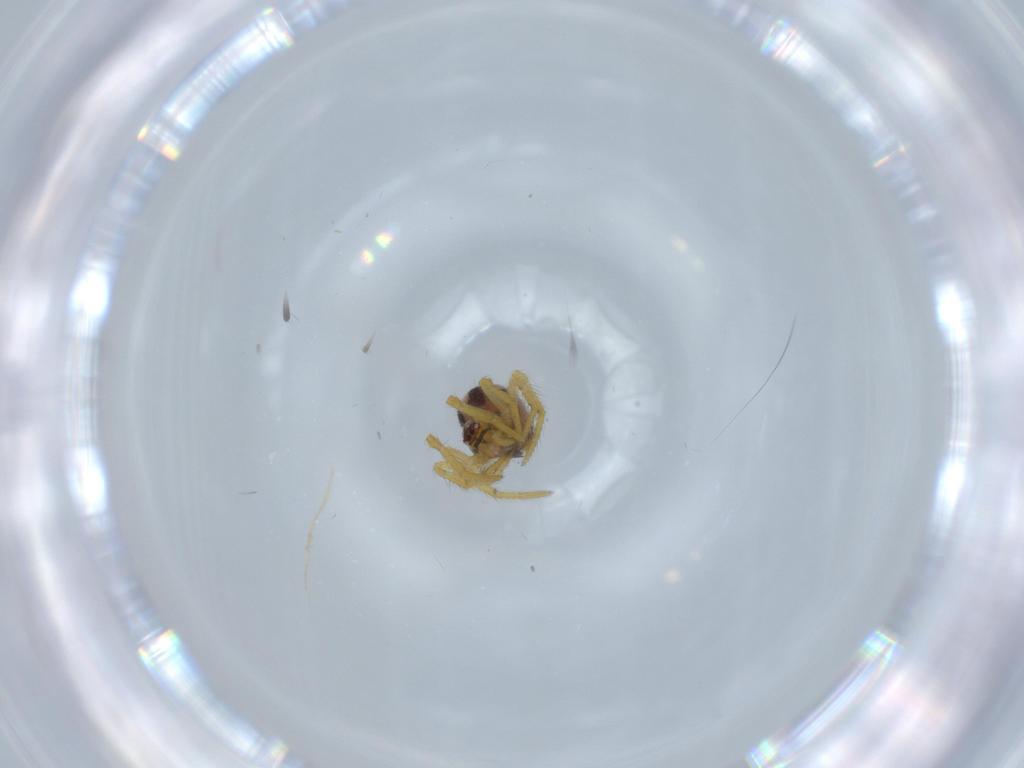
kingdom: Animalia
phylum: Arthropoda
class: Arachnida
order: Araneae
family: Theridiidae
